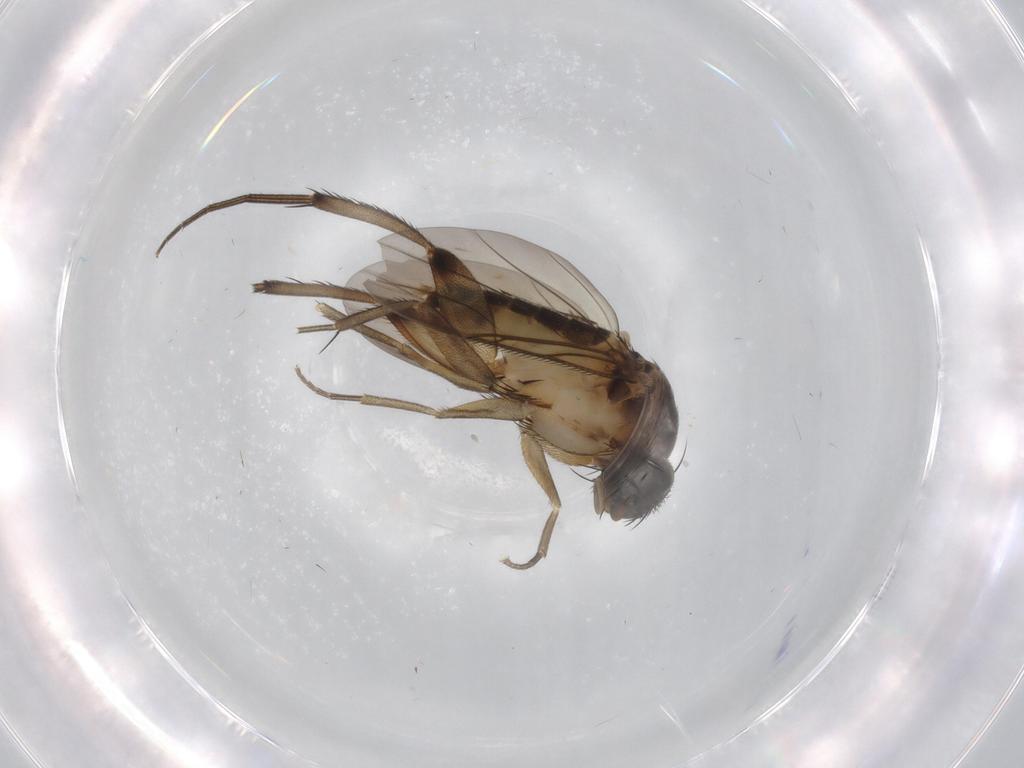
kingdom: Animalia
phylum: Arthropoda
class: Insecta
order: Diptera
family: Phoridae
